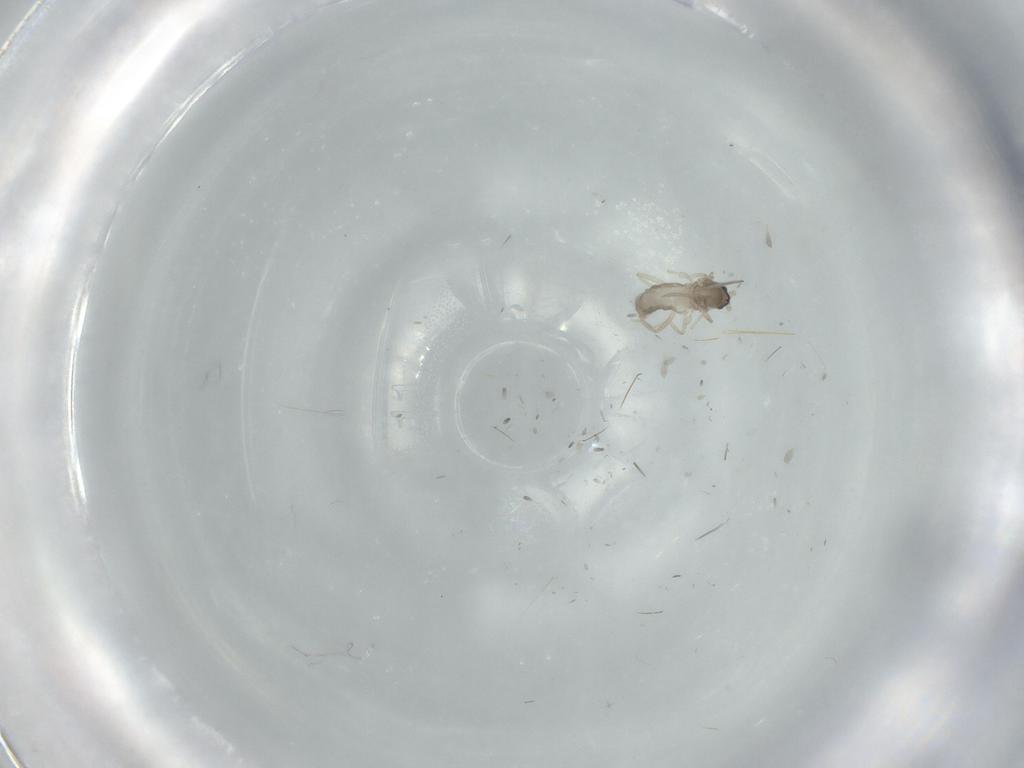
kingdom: Animalia
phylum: Arthropoda
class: Insecta
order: Diptera
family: Cecidomyiidae
